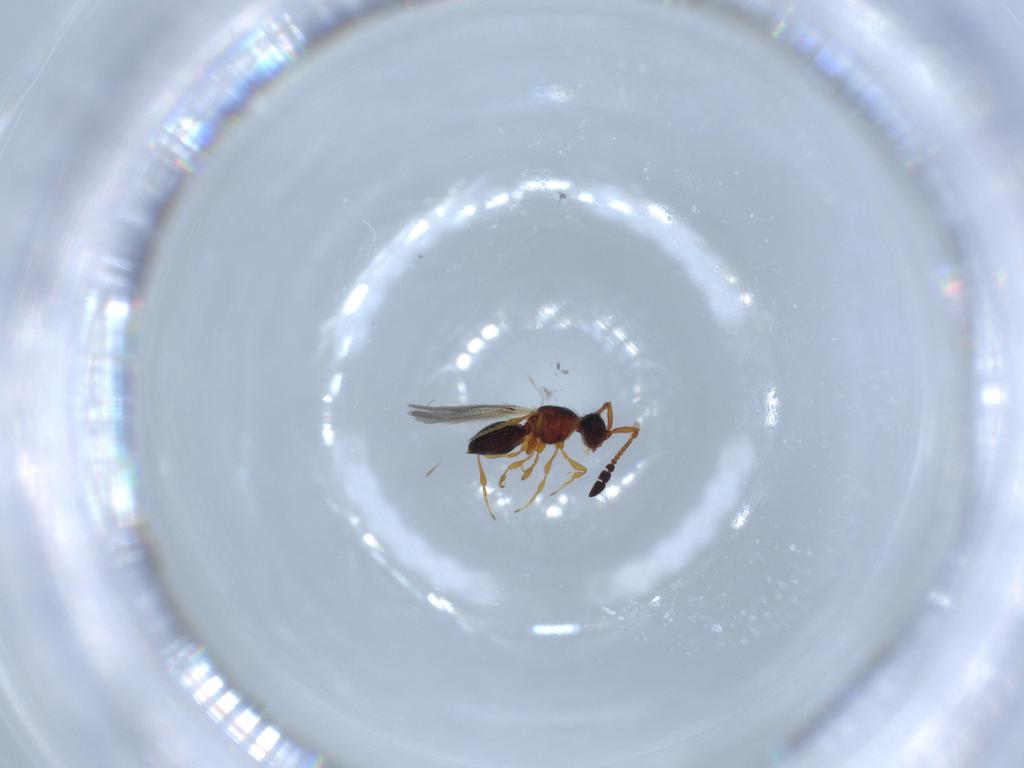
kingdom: Animalia
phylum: Arthropoda
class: Insecta
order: Hymenoptera
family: Diapriidae
